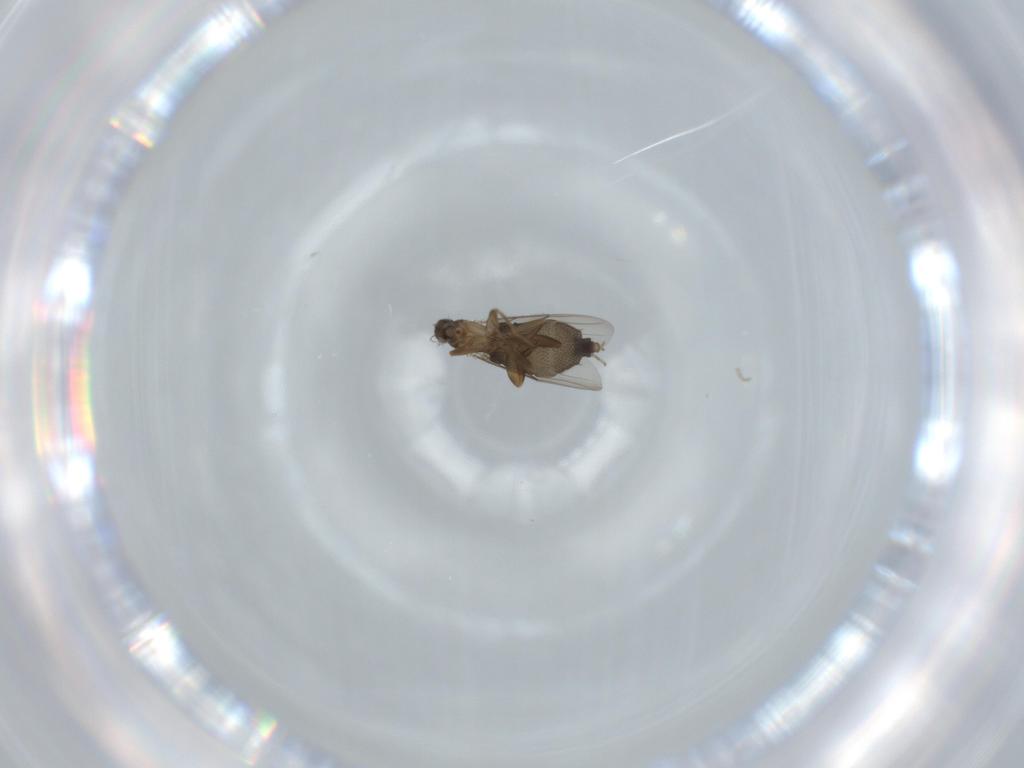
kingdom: Animalia
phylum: Arthropoda
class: Insecta
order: Diptera
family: Phoridae
